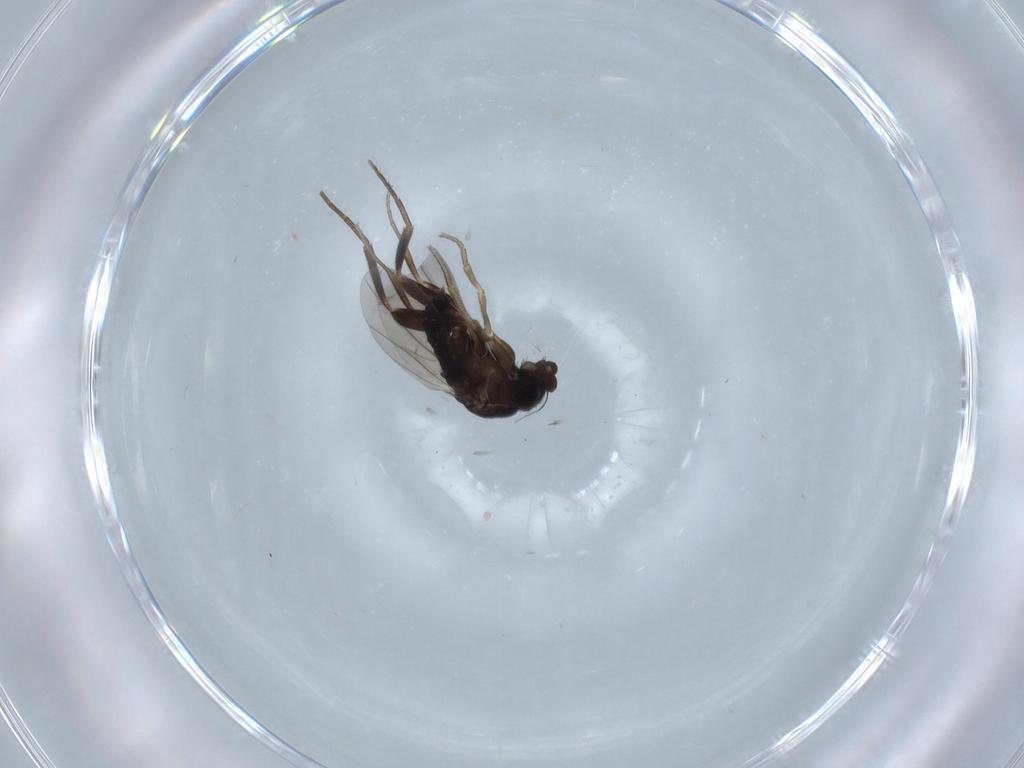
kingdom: Animalia
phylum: Arthropoda
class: Insecta
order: Diptera
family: Phoridae
